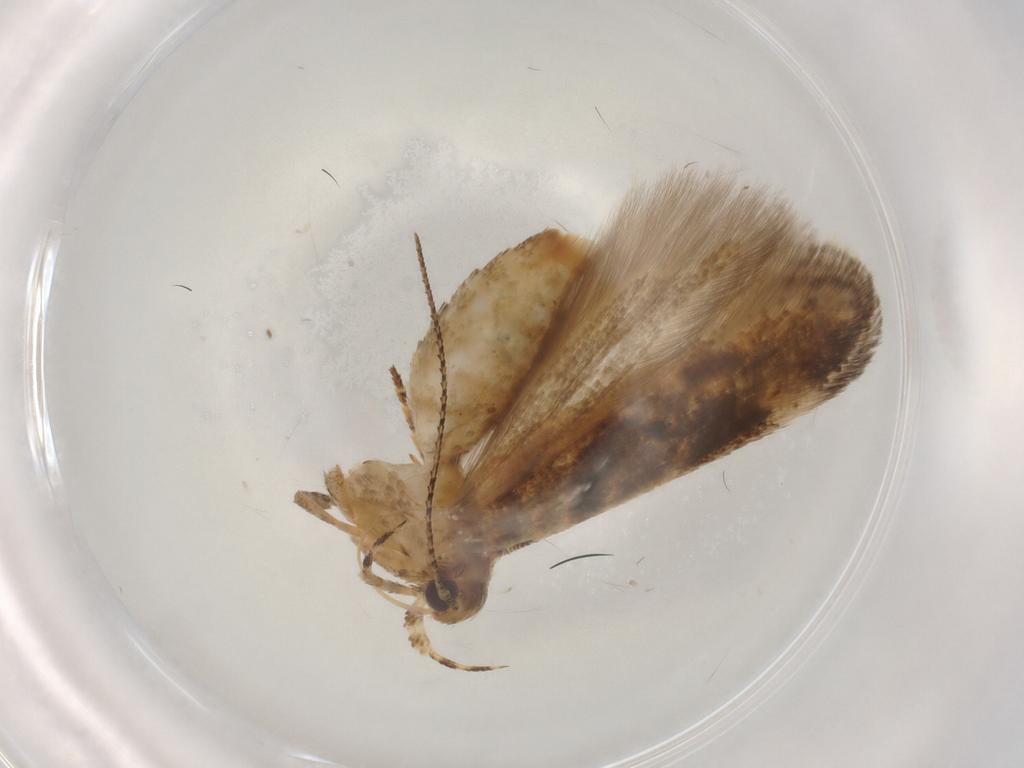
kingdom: Animalia
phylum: Arthropoda
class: Insecta
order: Lepidoptera
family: Gelechiidae
